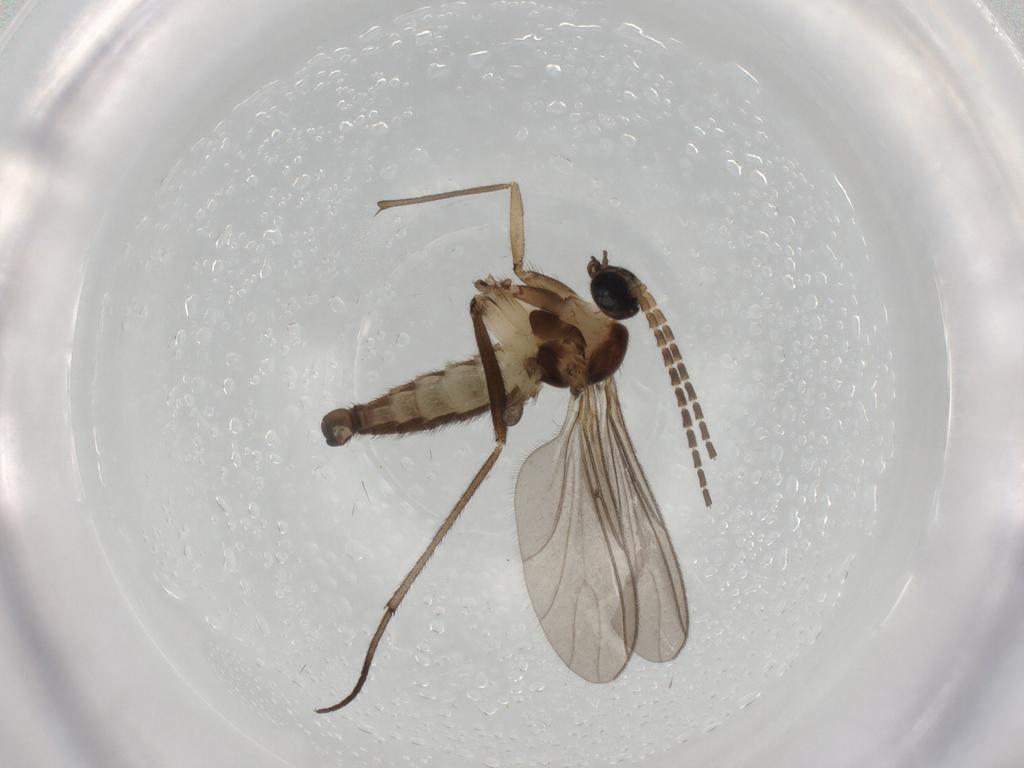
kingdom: Animalia
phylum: Arthropoda
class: Insecta
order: Diptera
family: Sciaridae
